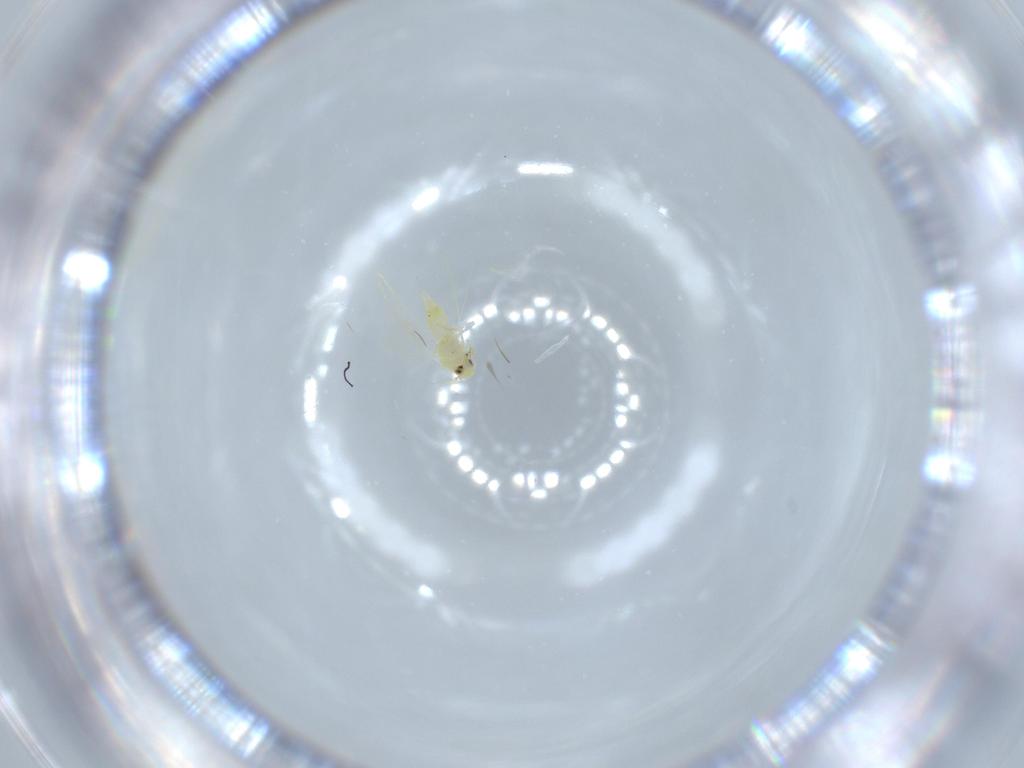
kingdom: Animalia
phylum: Arthropoda
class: Insecta
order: Hemiptera
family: Aleyrodidae
